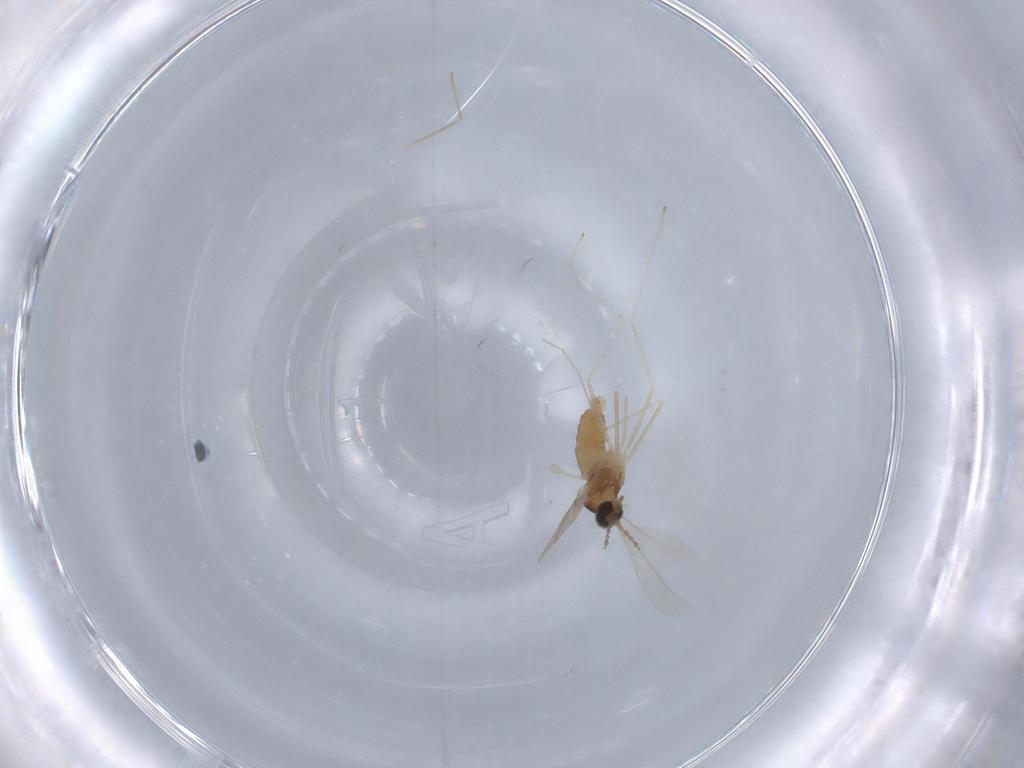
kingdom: Animalia
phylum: Arthropoda
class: Insecta
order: Diptera
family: Cecidomyiidae
